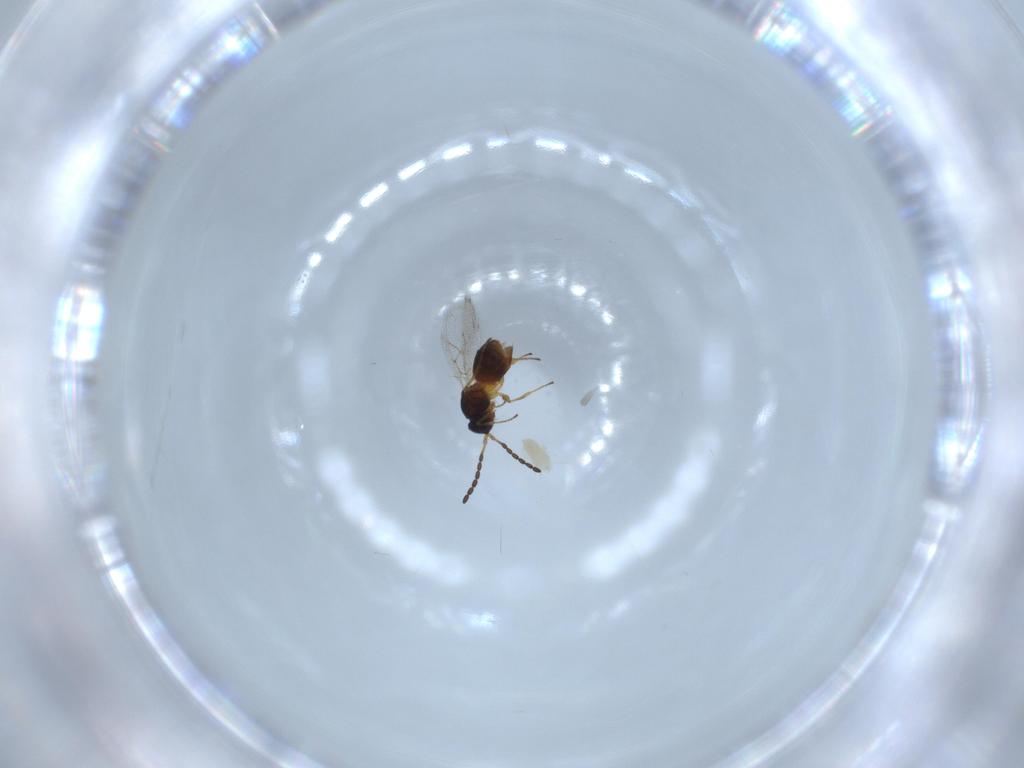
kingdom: Animalia
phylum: Arthropoda
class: Arachnida
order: Trombidiformes
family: Eupodidae
